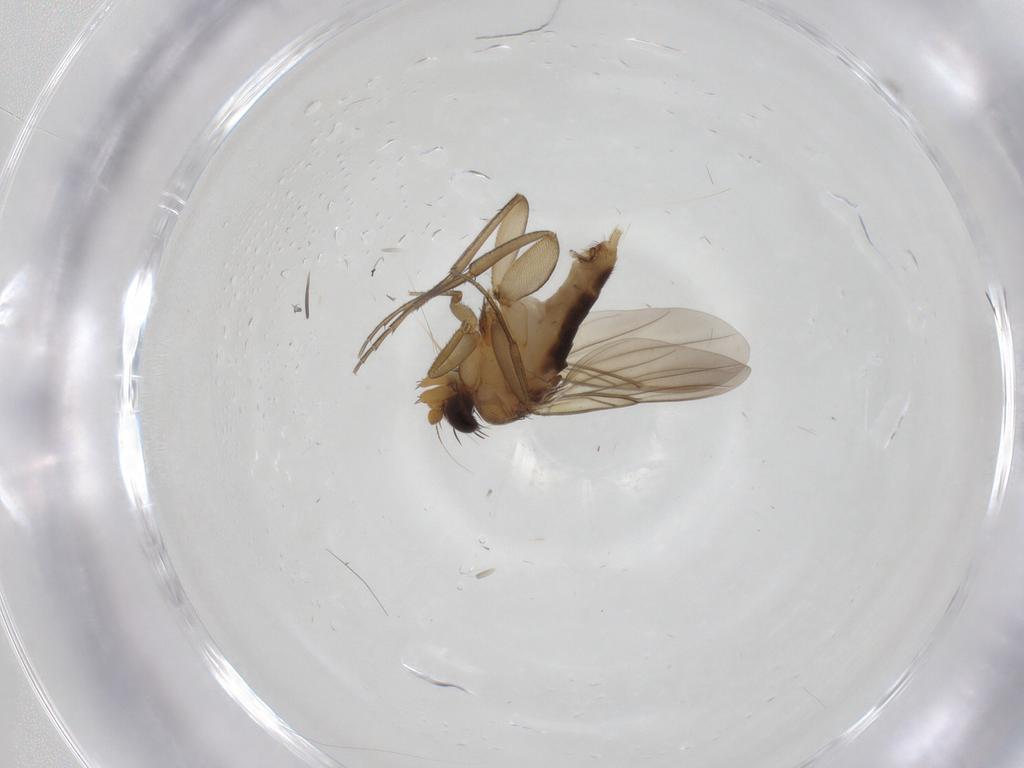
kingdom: Animalia
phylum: Arthropoda
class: Insecta
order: Diptera
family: Phoridae
